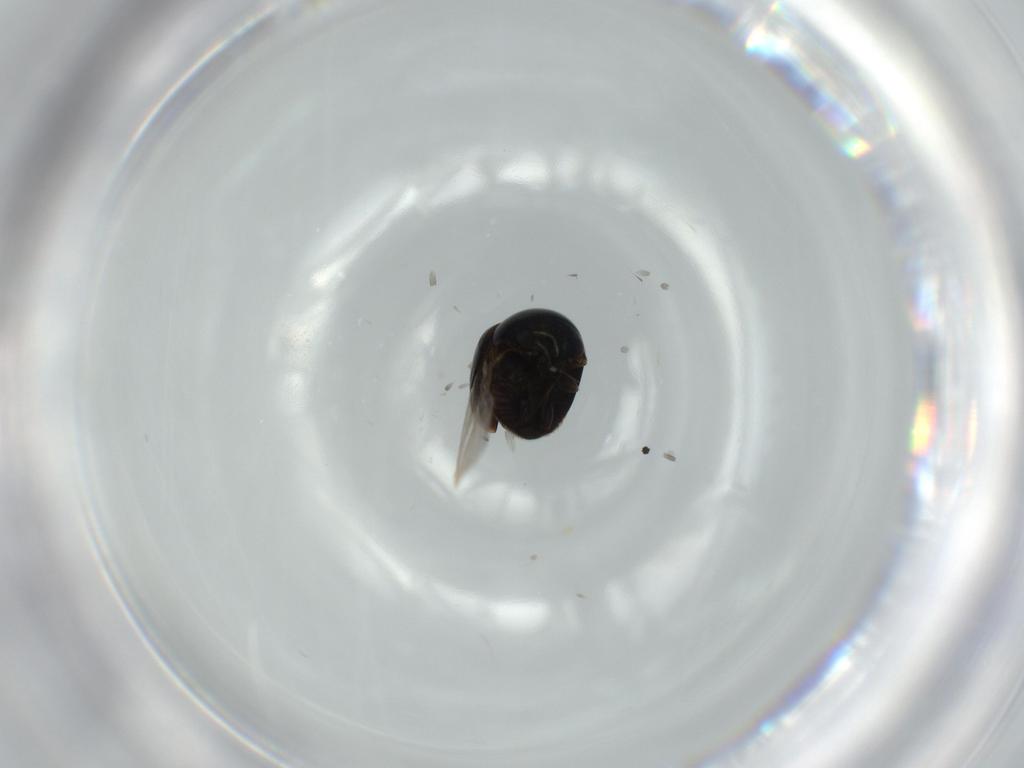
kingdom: Animalia
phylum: Arthropoda
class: Insecta
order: Coleoptera
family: Cybocephalidae
